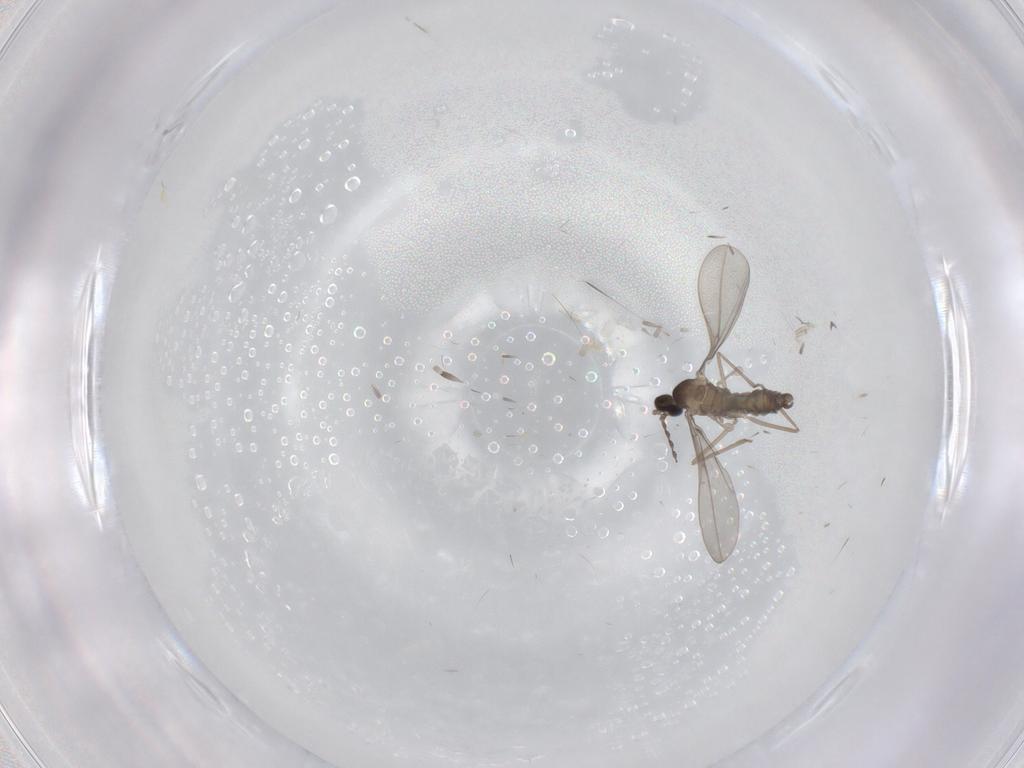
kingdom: Animalia
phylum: Arthropoda
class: Insecta
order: Diptera
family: Cecidomyiidae
